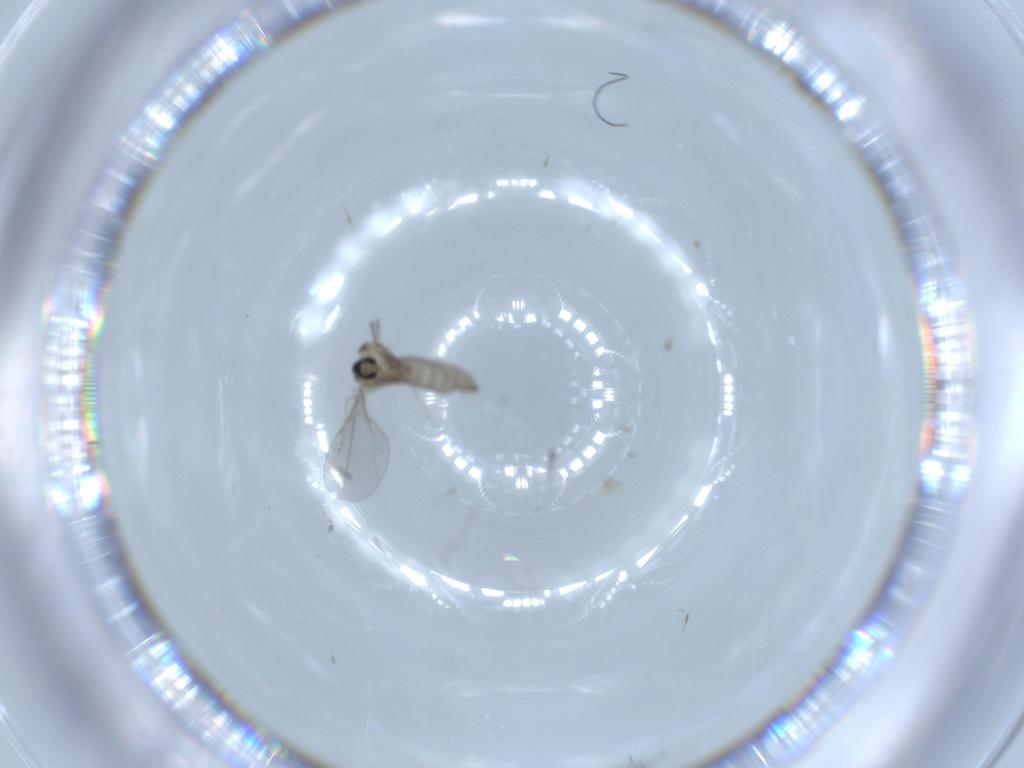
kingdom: Animalia
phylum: Arthropoda
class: Insecta
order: Diptera
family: Cecidomyiidae
